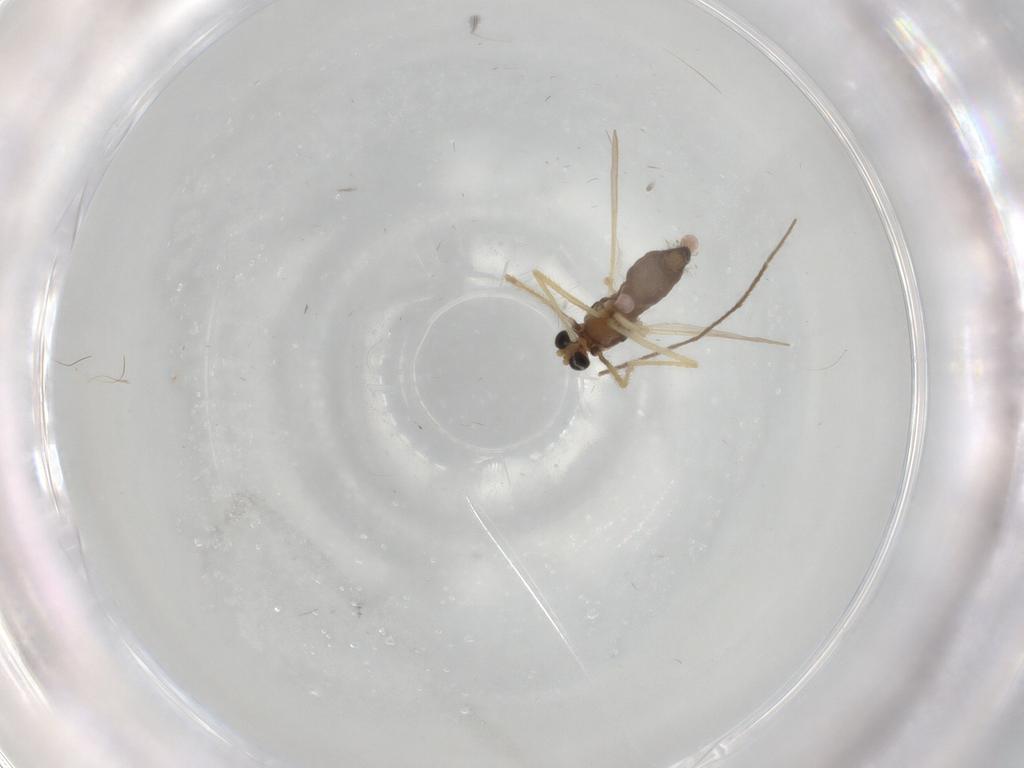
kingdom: Animalia
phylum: Arthropoda
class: Insecta
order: Diptera
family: Chironomidae
